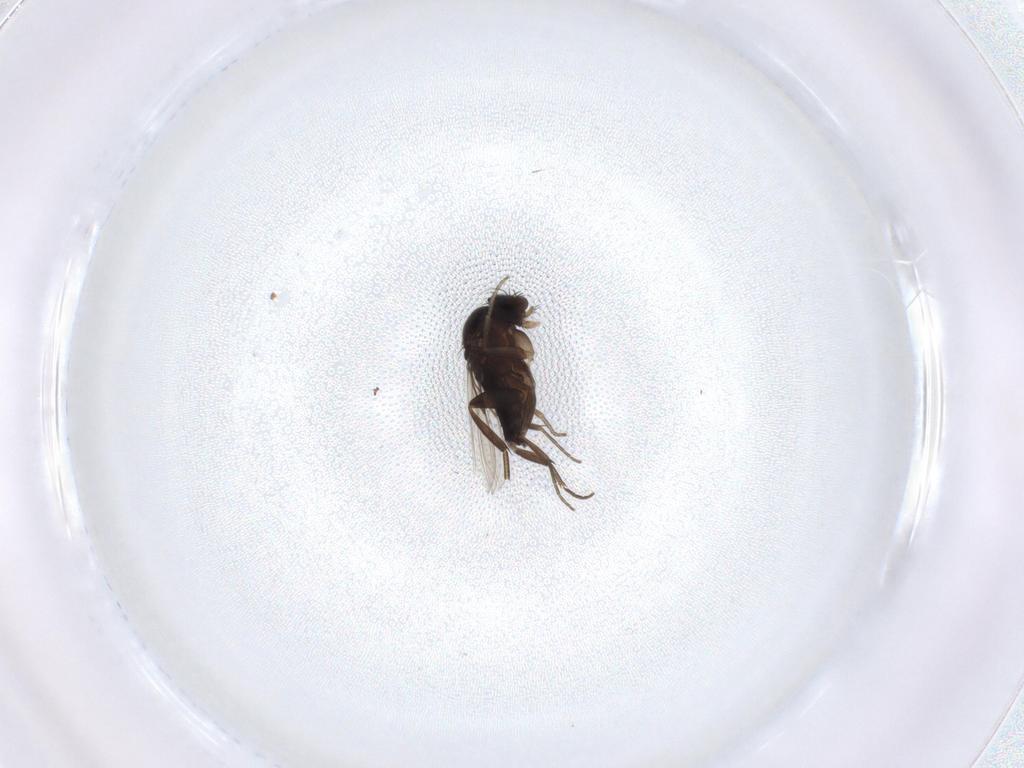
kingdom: Animalia
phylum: Arthropoda
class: Insecta
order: Diptera
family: Phoridae
